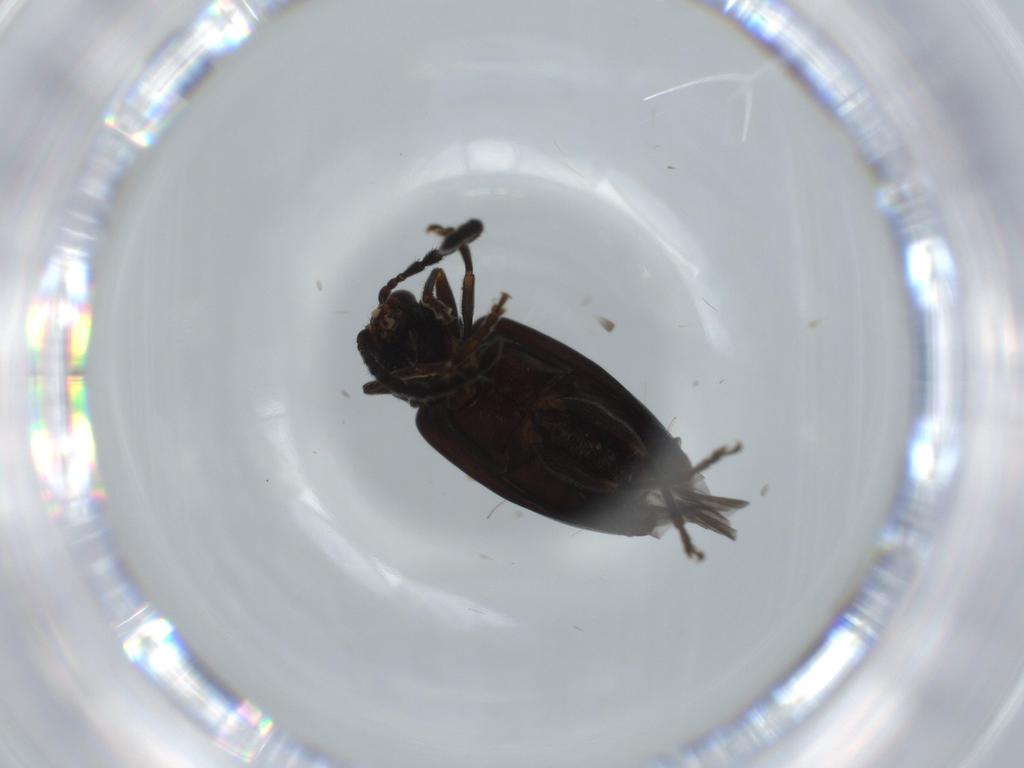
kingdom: Animalia
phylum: Arthropoda
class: Insecta
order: Coleoptera
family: Chrysomelidae
